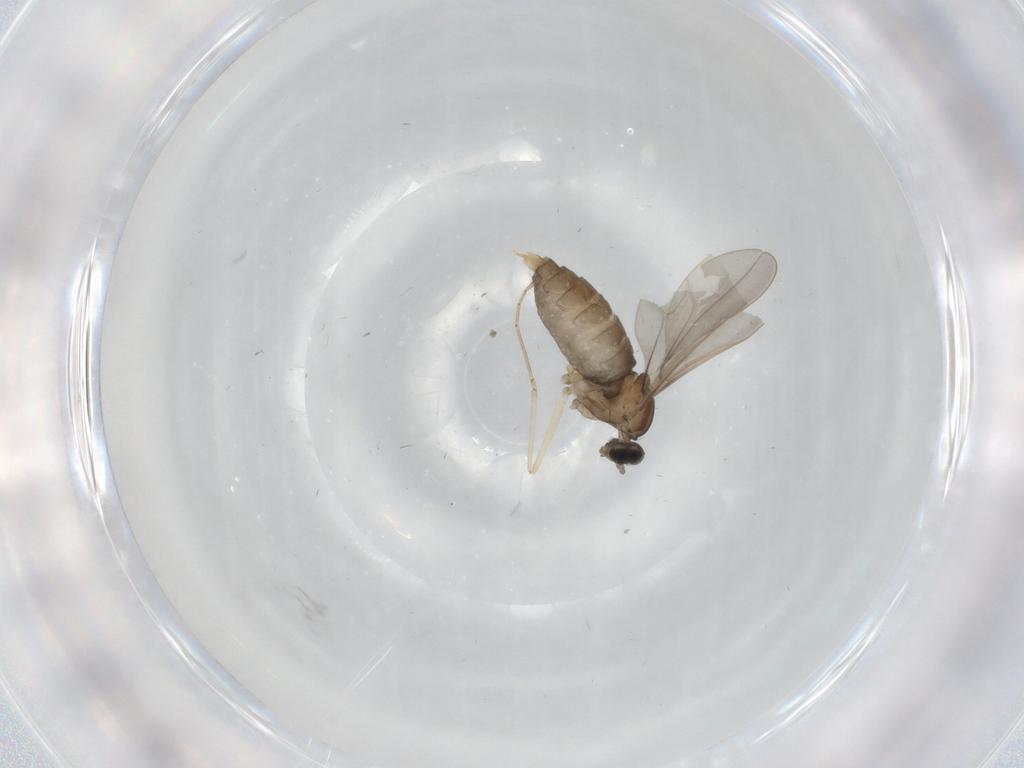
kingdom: Animalia
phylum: Arthropoda
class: Insecta
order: Diptera
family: Cecidomyiidae
